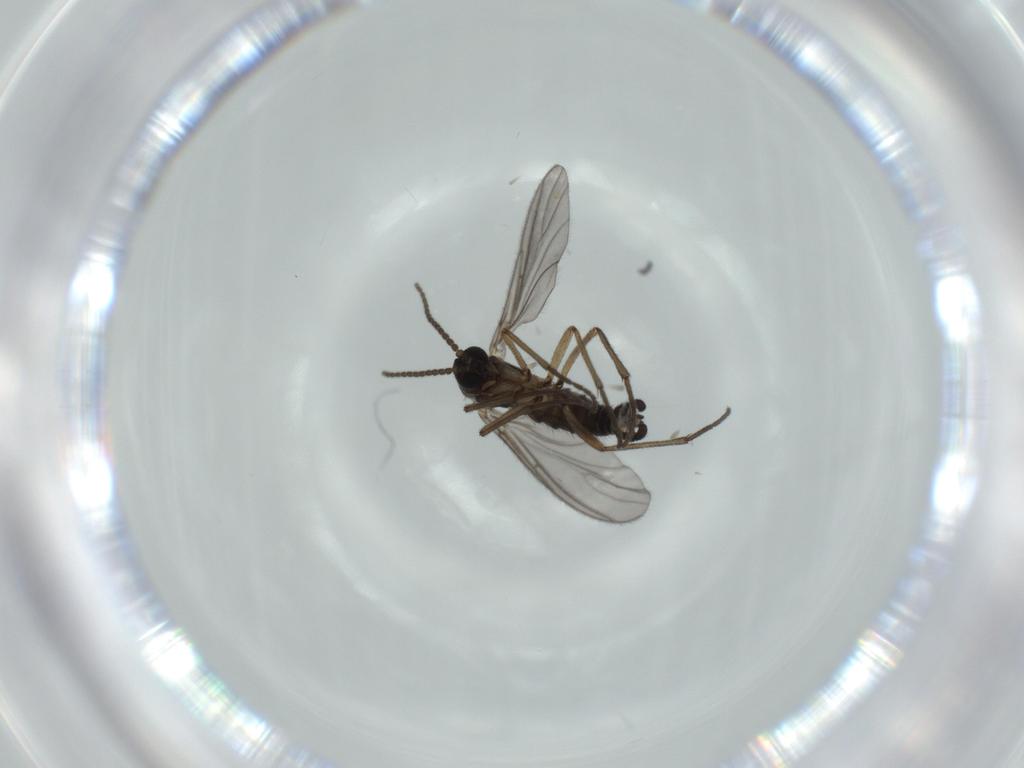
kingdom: Animalia
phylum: Arthropoda
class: Insecta
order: Diptera
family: Sciaridae
